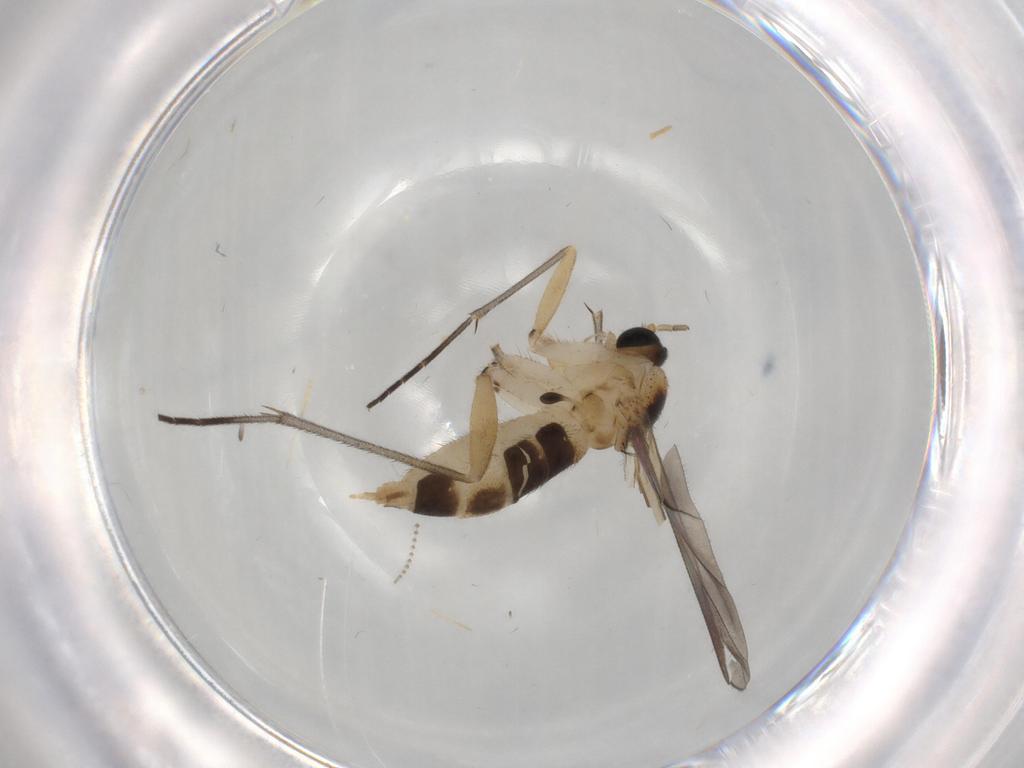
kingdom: Animalia
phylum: Arthropoda
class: Insecta
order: Diptera
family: Sciaridae
